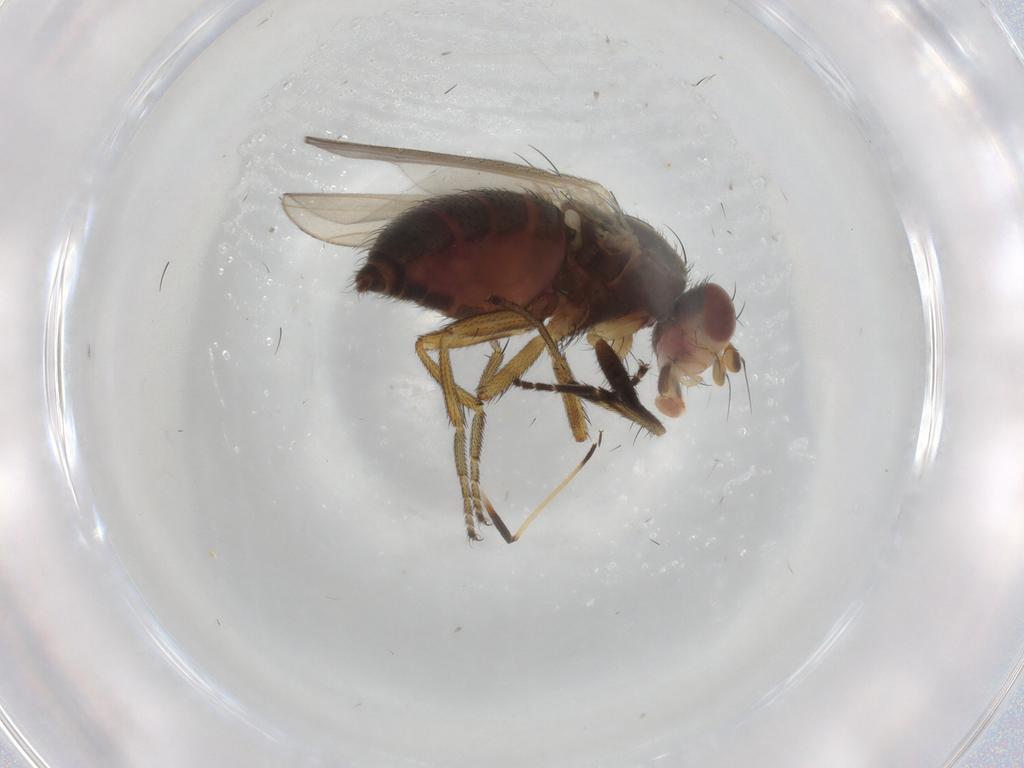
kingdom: Animalia
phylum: Arthropoda
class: Insecta
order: Diptera
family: Ulidiidae
